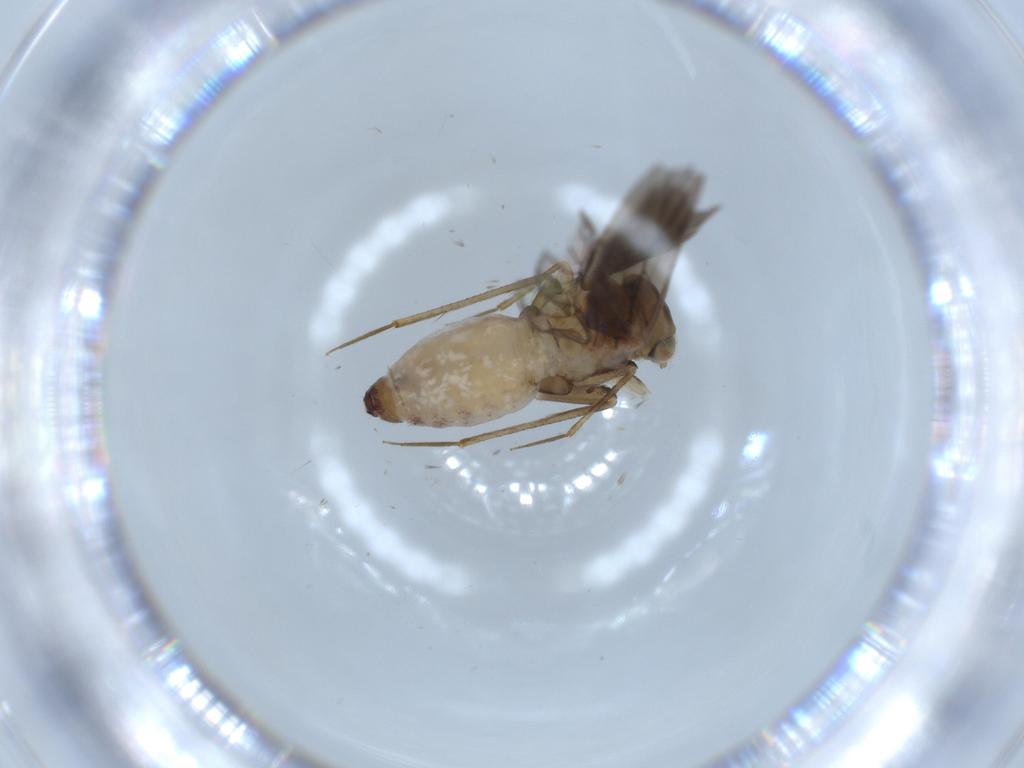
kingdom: Animalia
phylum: Arthropoda
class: Insecta
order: Psocodea
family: Lepidopsocidae
